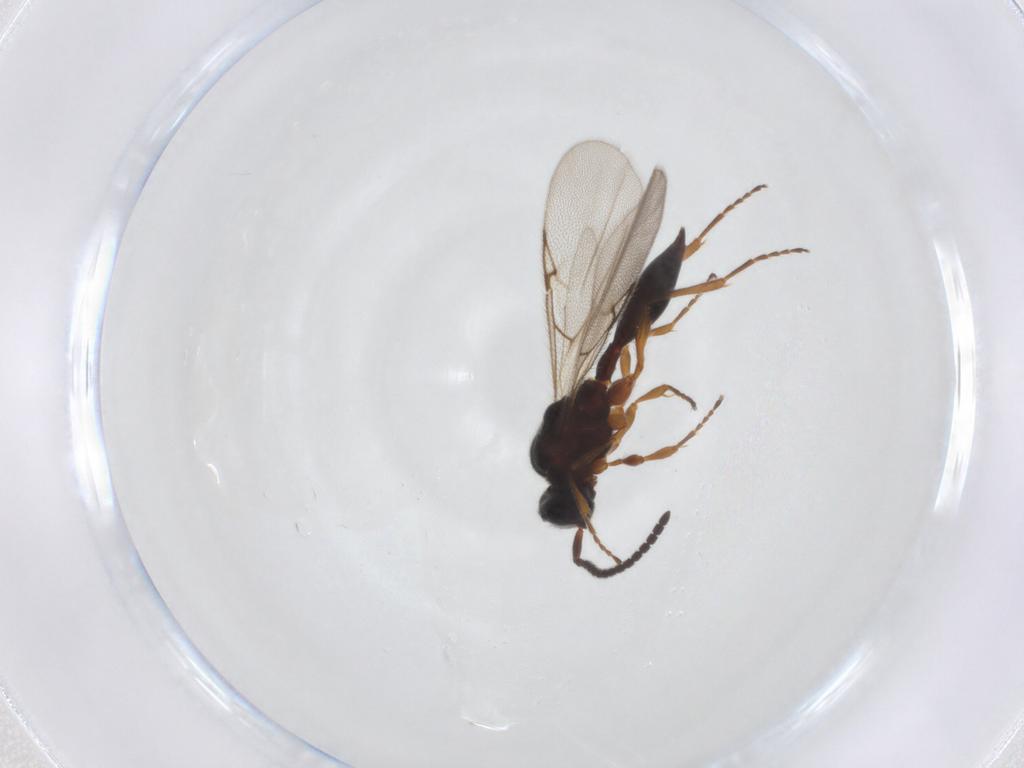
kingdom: Animalia
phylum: Arthropoda
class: Insecta
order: Hymenoptera
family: Diapriidae
